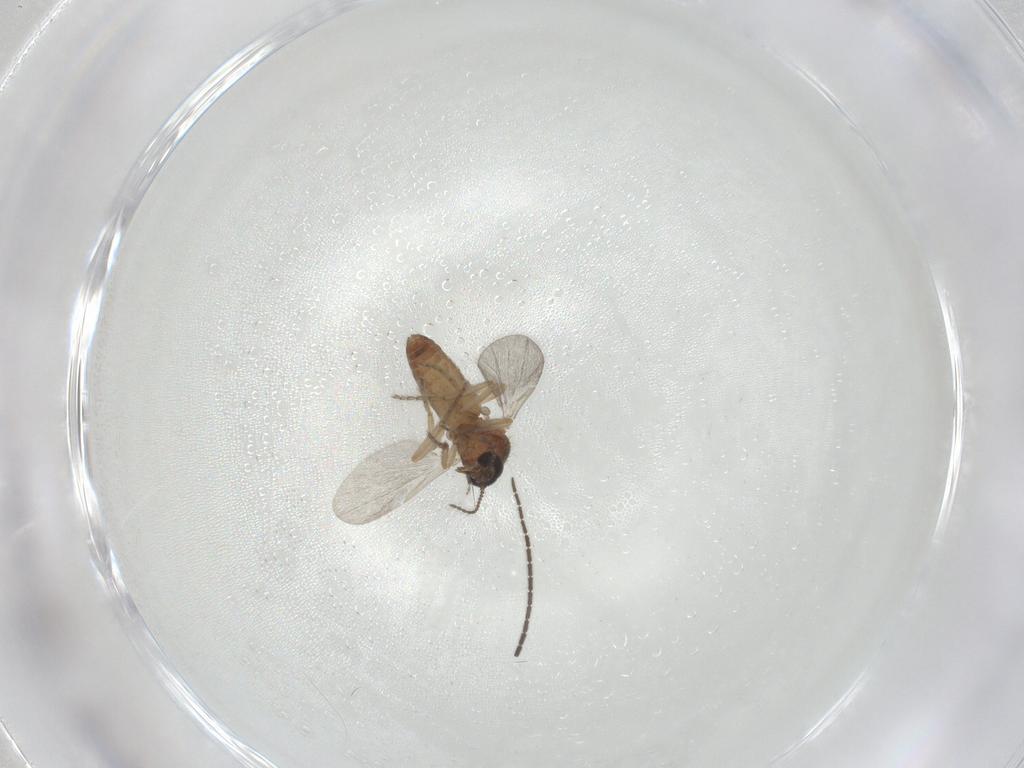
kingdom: Animalia
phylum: Arthropoda
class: Insecta
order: Diptera
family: Ceratopogonidae
